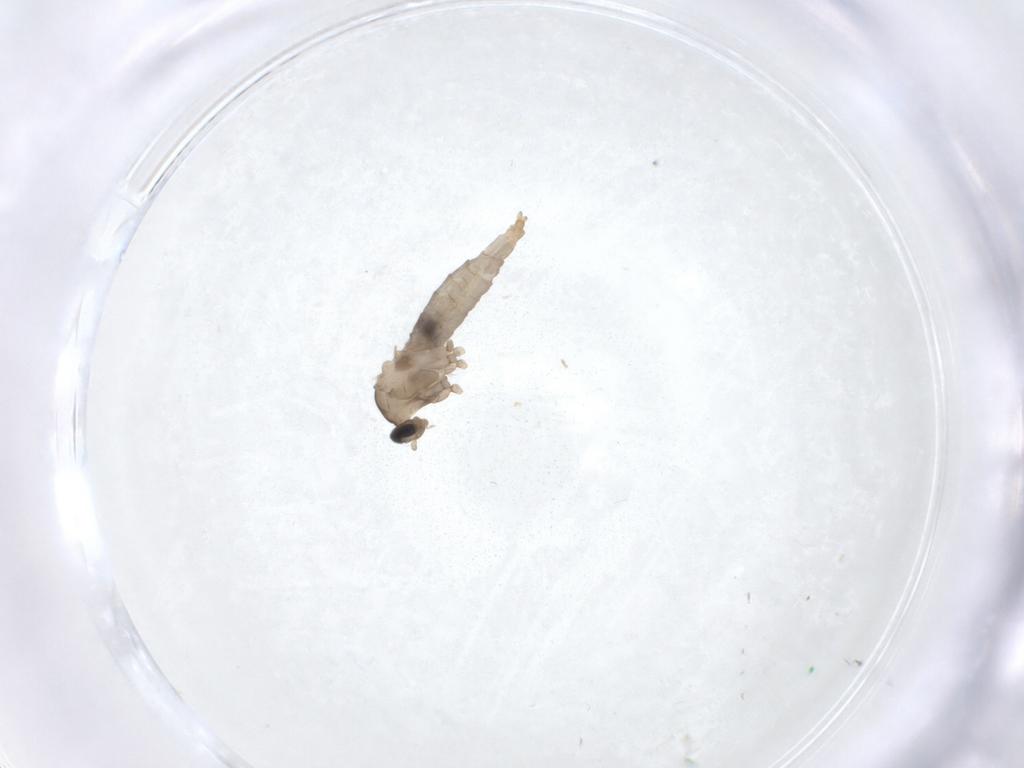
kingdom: Animalia
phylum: Arthropoda
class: Insecta
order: Diptera
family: Cecidomyiidae
